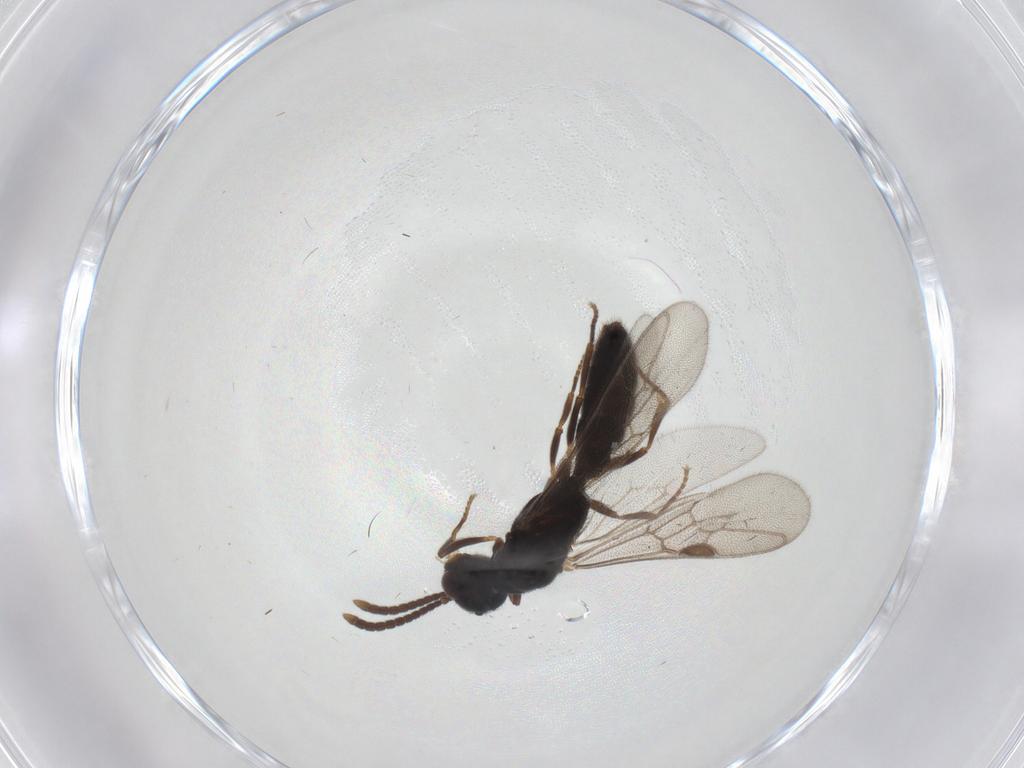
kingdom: Animalia
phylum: Arthropoda
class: Insecta
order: Hymenoptera
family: Formicidae
